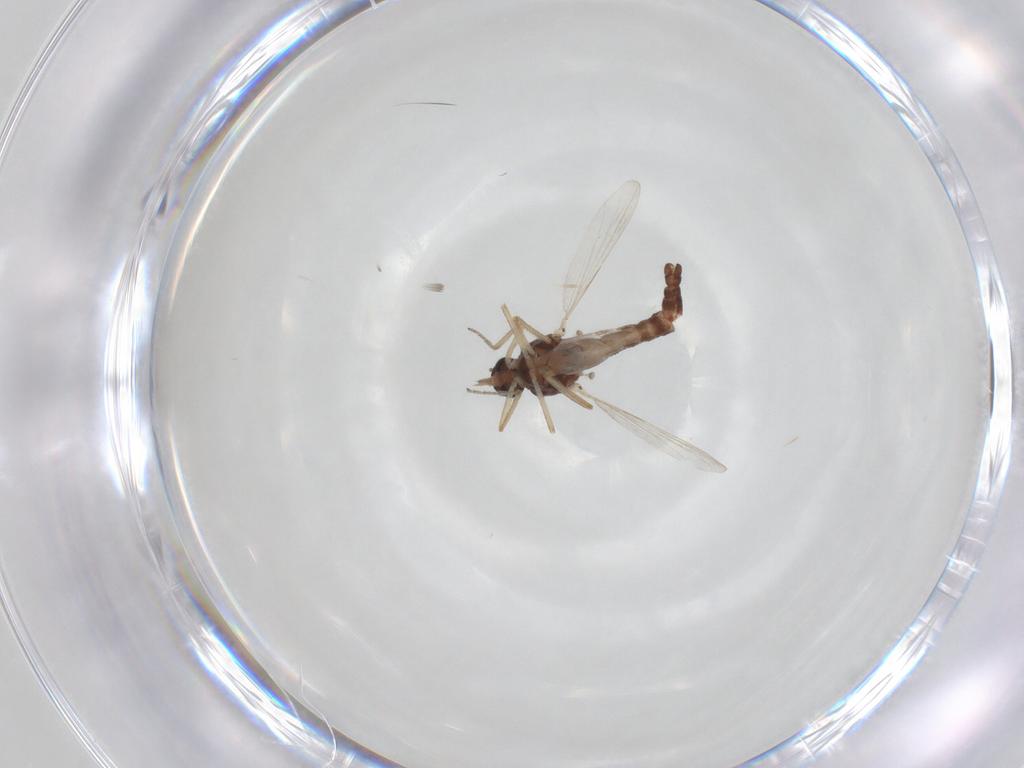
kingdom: Animalia
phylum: Arthropoda
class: Insecta
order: Diptera
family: Ceratopogonidae
